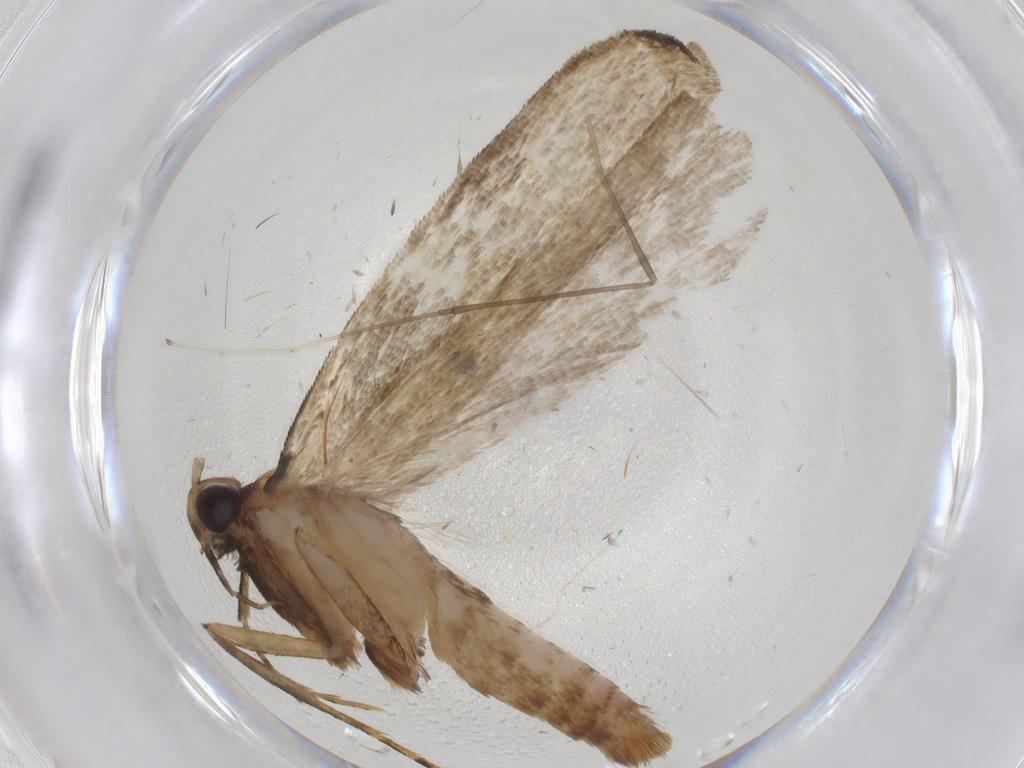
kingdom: Animalia
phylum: Arthropoda
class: Insecta
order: Lepidoptera
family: Gelechiidae
